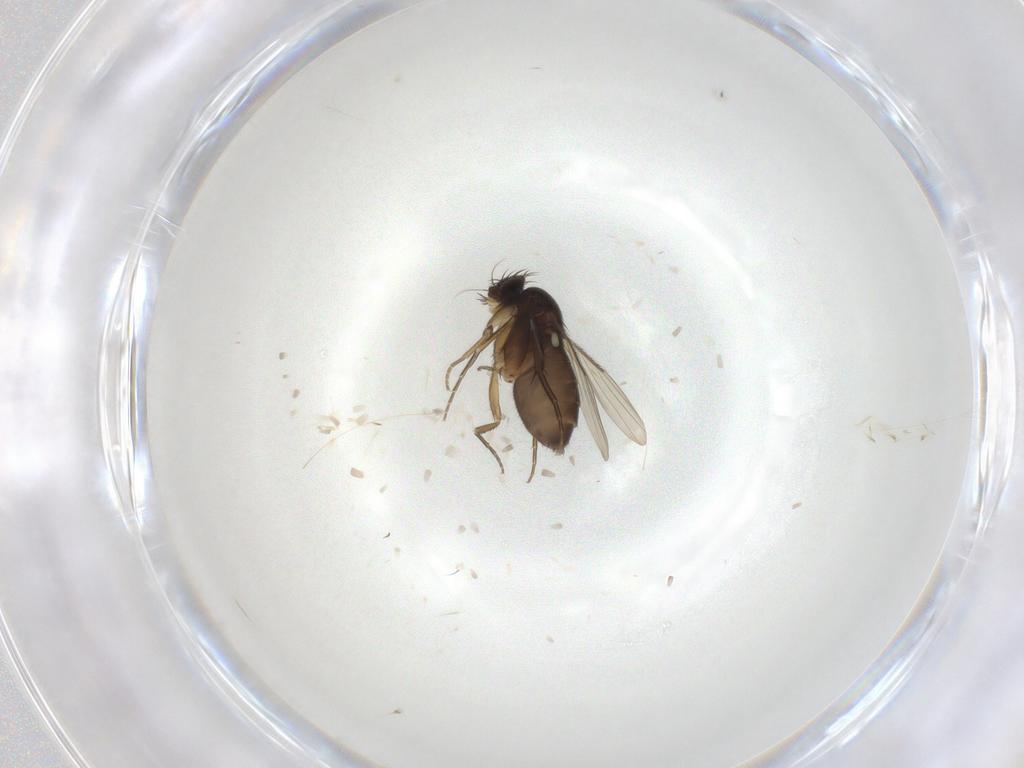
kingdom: Animalia
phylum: Arthropoda
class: Insecta
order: Diptera
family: Phoridae
